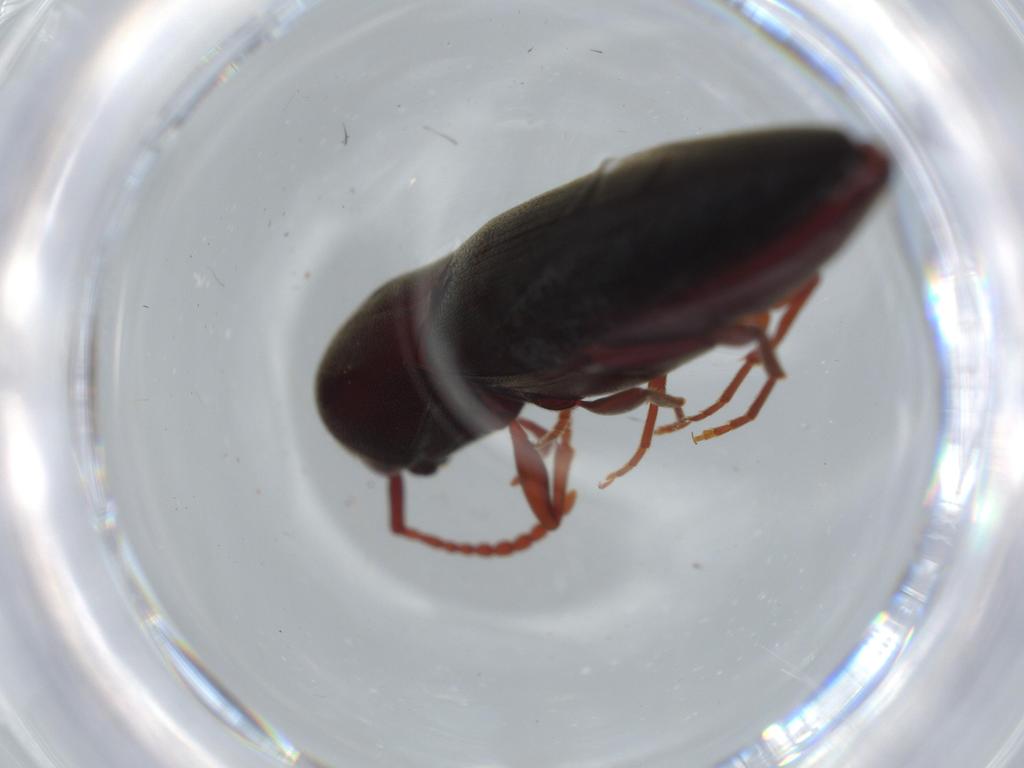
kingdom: Animalia
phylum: Arthropoda
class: Insecta
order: Coleoptera
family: Eucnemidae
